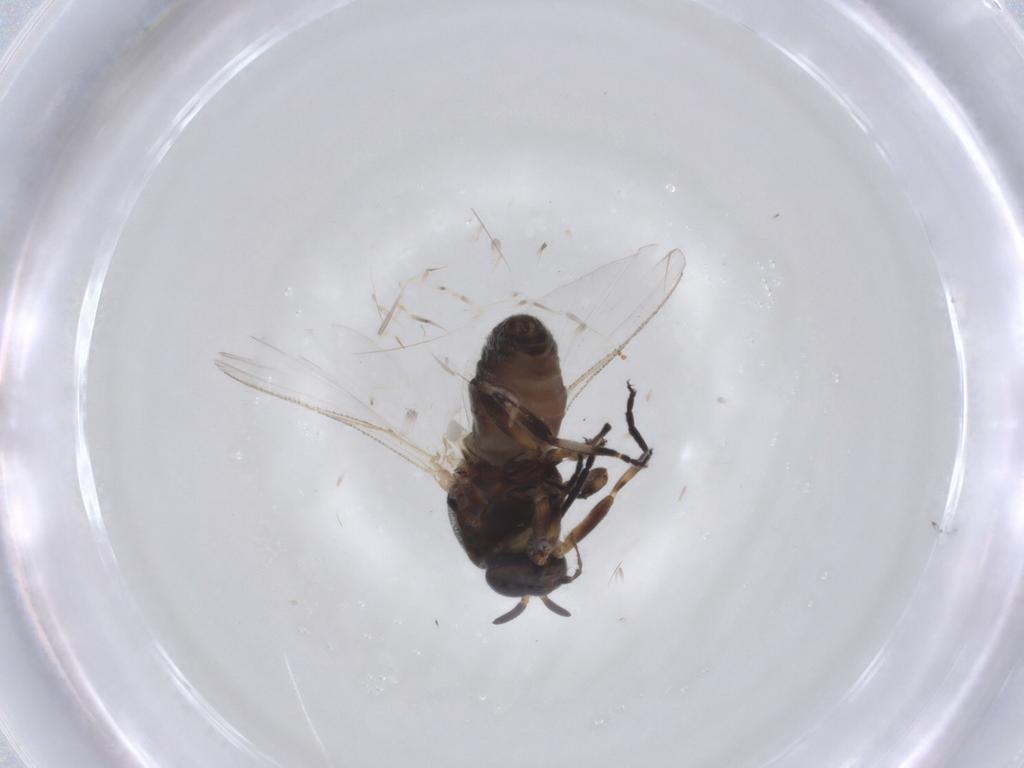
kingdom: Animalia
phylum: Arthropoda
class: Insecta
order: Diptera
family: Cecidomyiidae
